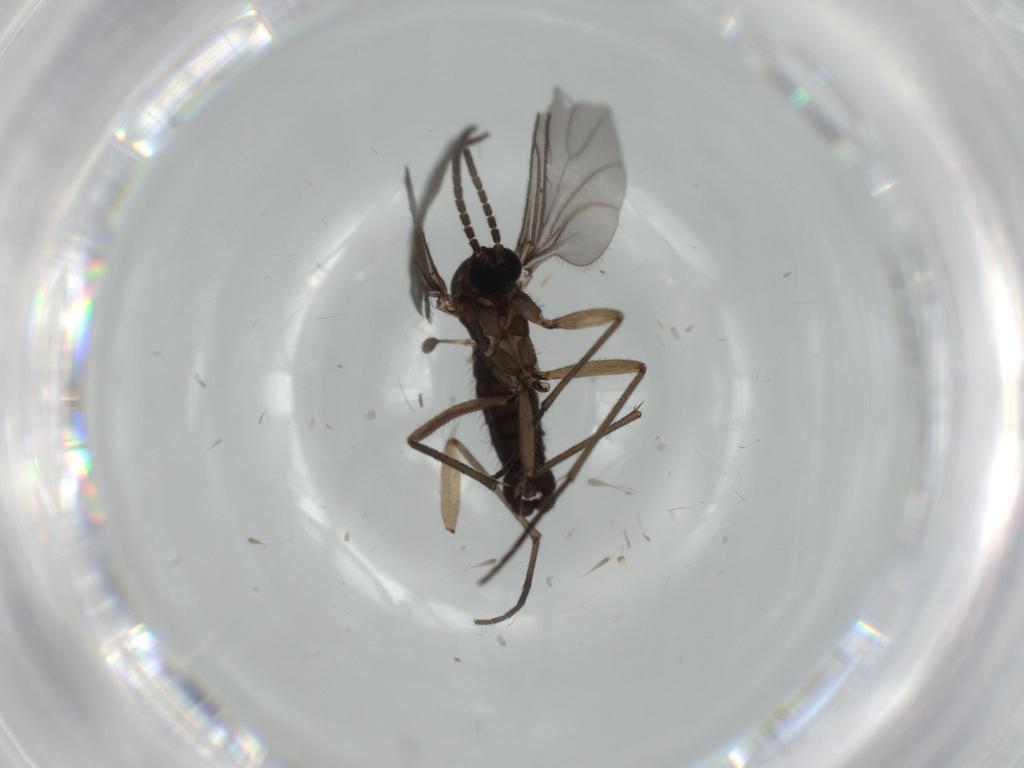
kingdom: Animalia
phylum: Arthropoda
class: Insecta
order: Diptera
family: Sciaridae
